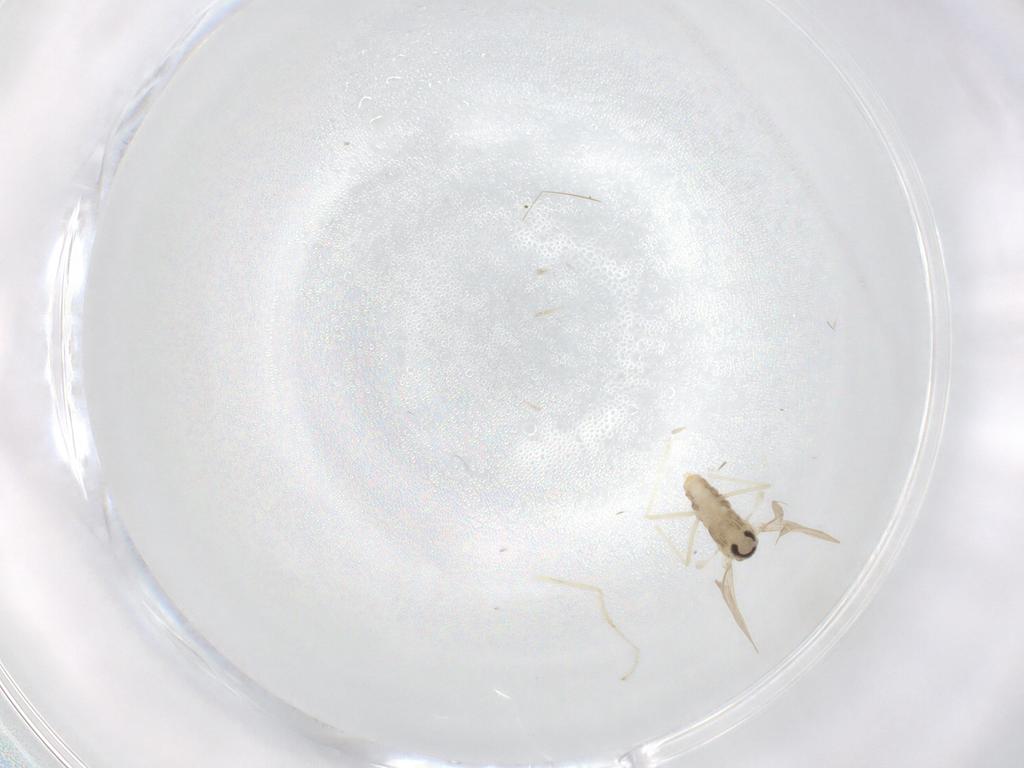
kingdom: Animalia
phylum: Arthropoda
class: Insecta
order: Diptera
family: Cecidomyiidae
